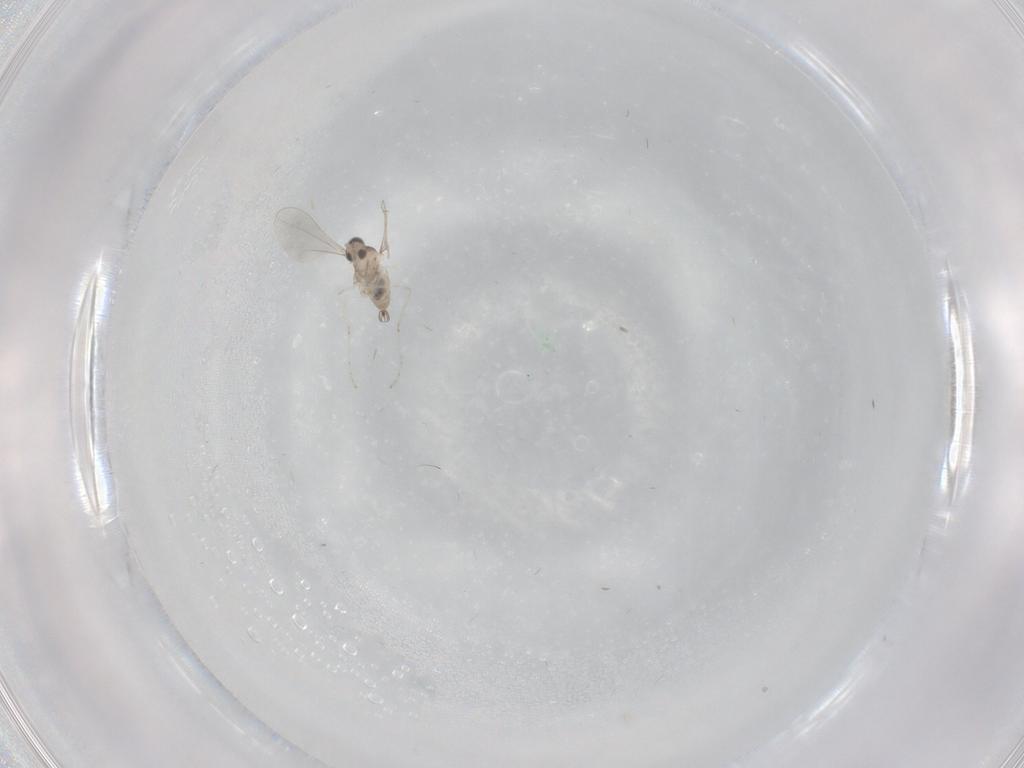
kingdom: Animalia
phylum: Arthropoda
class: Insecta
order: Diptera
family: Cecidomyiidae
